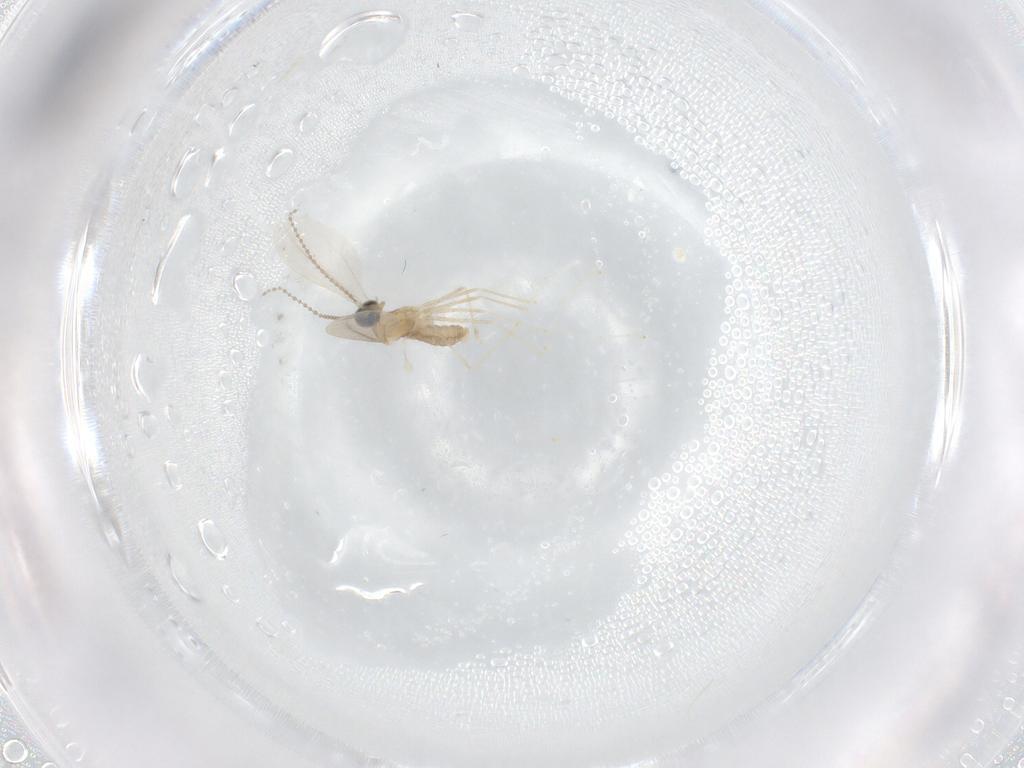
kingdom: Animalia
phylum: Arthropoda
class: Insecta
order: Diptera
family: Cecidomyiidae
